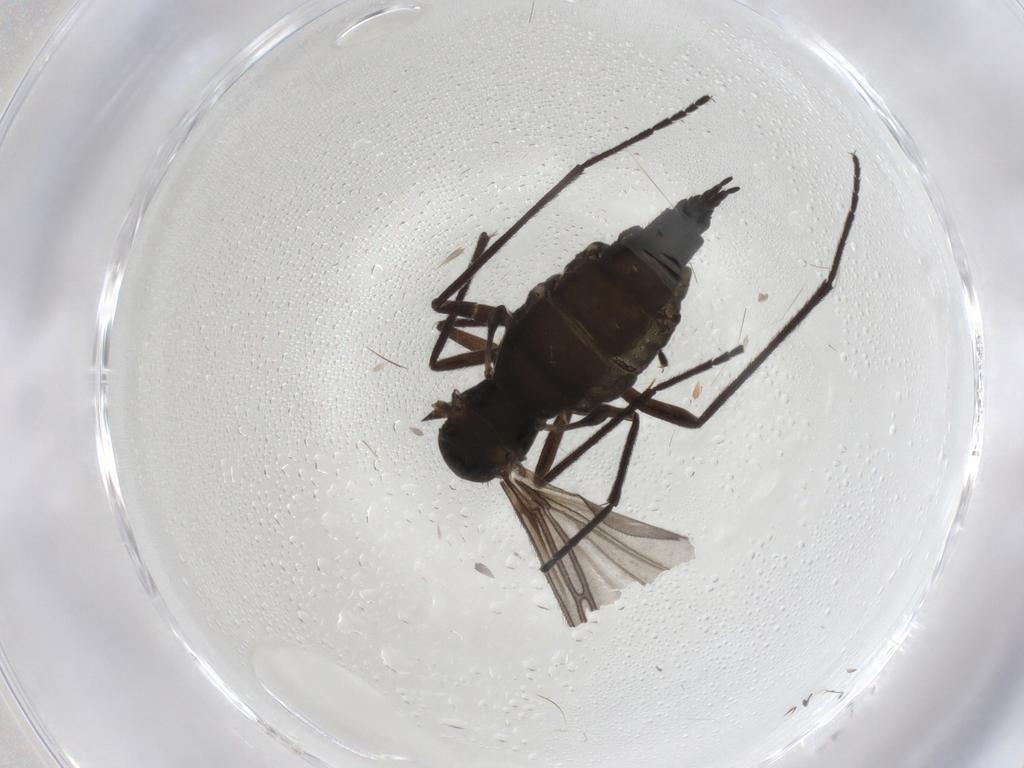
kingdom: Animalia
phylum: Arthropoda
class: Insecta
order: Diptera
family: Sciaridae
